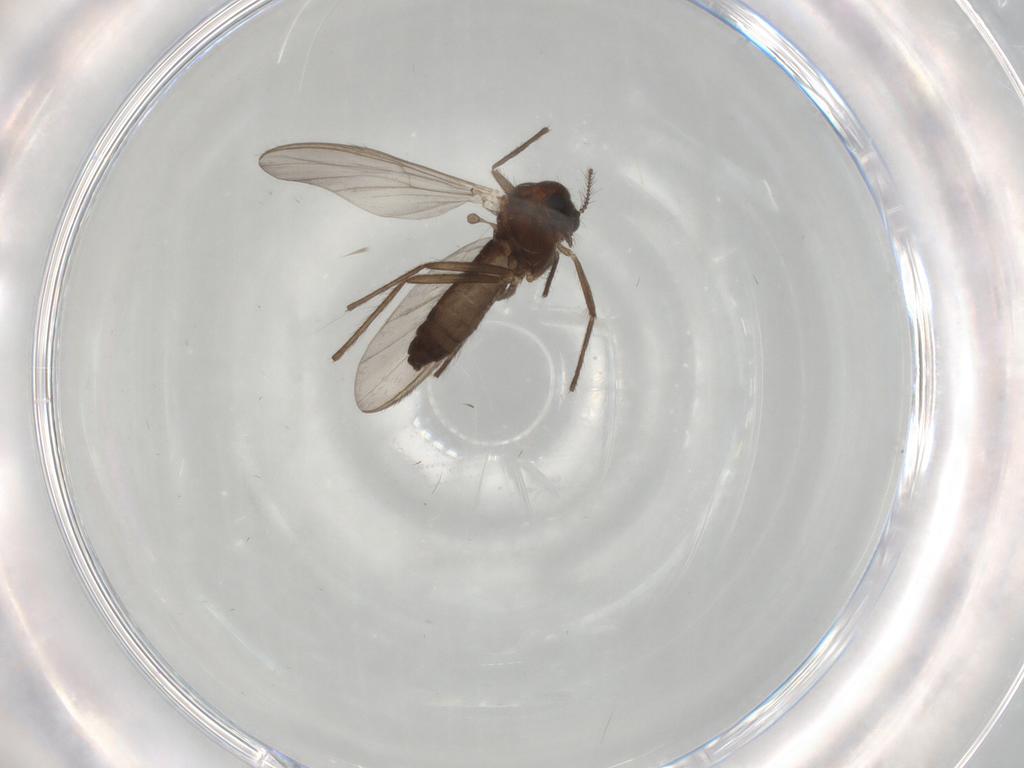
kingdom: Animalia
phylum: Arthropoda
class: Insecta
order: Diptera
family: Chironomidae
